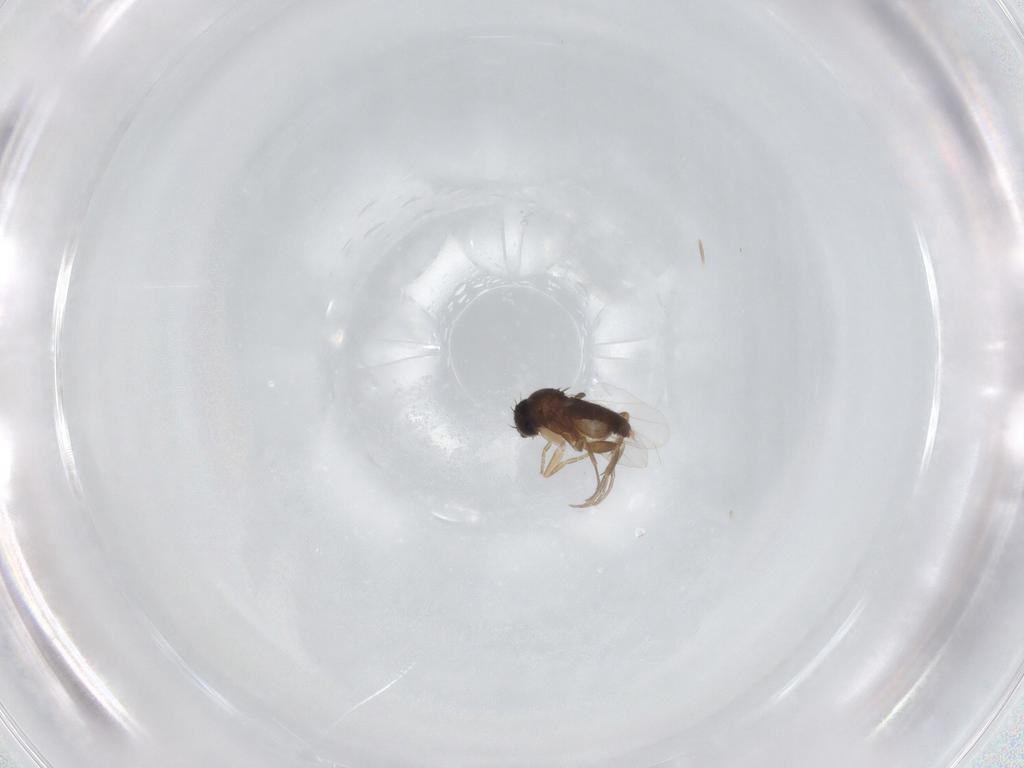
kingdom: Animalia
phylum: Arthropoda
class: Insecta
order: Diptera
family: Phoridae
